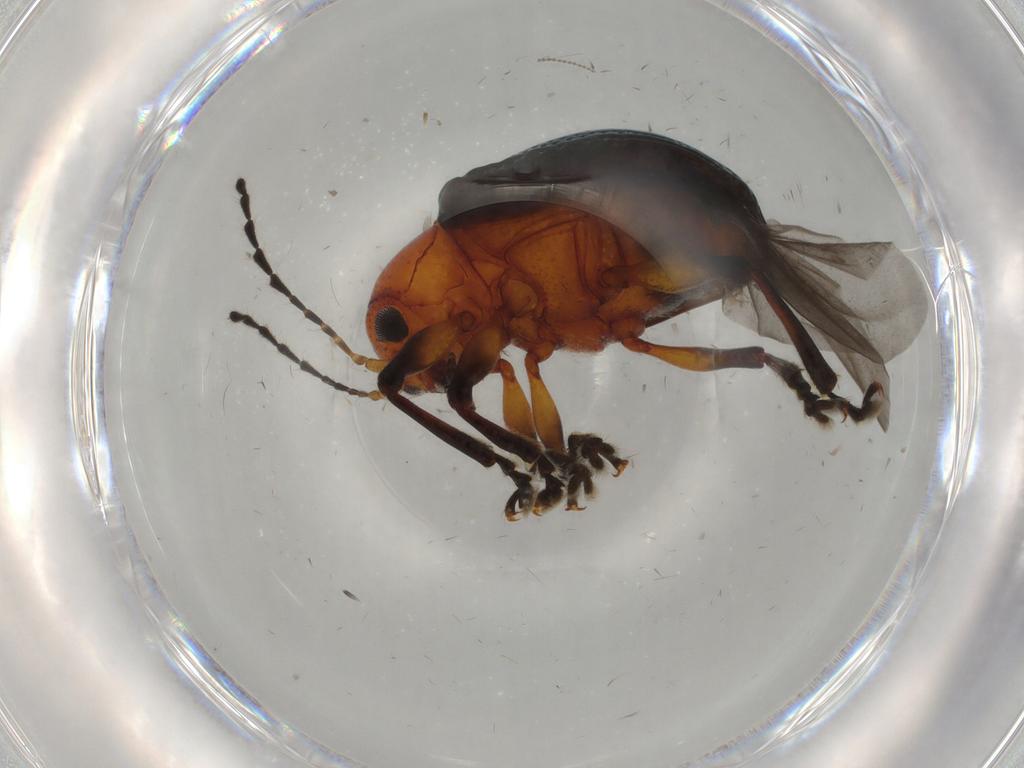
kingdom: Animalia
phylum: Arthropoda
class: Insecta
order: Coleoptera
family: Chrysomelidae
